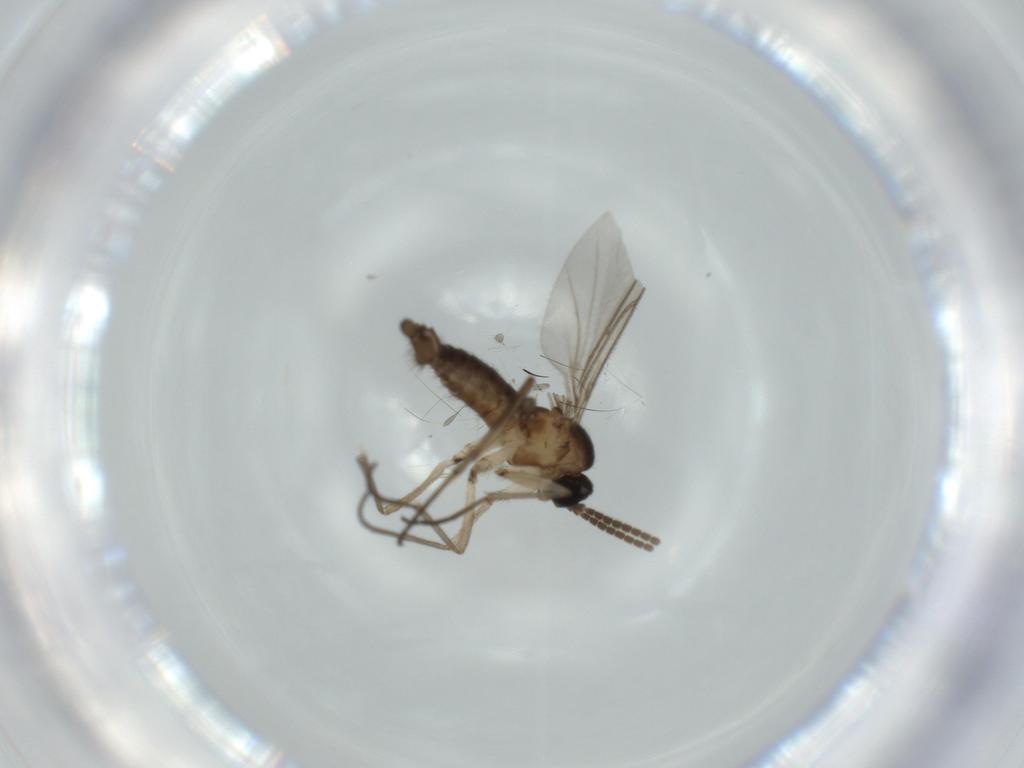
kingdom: Animalia
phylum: Arthropoda
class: Insecta
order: Diptera
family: Sciaridae
